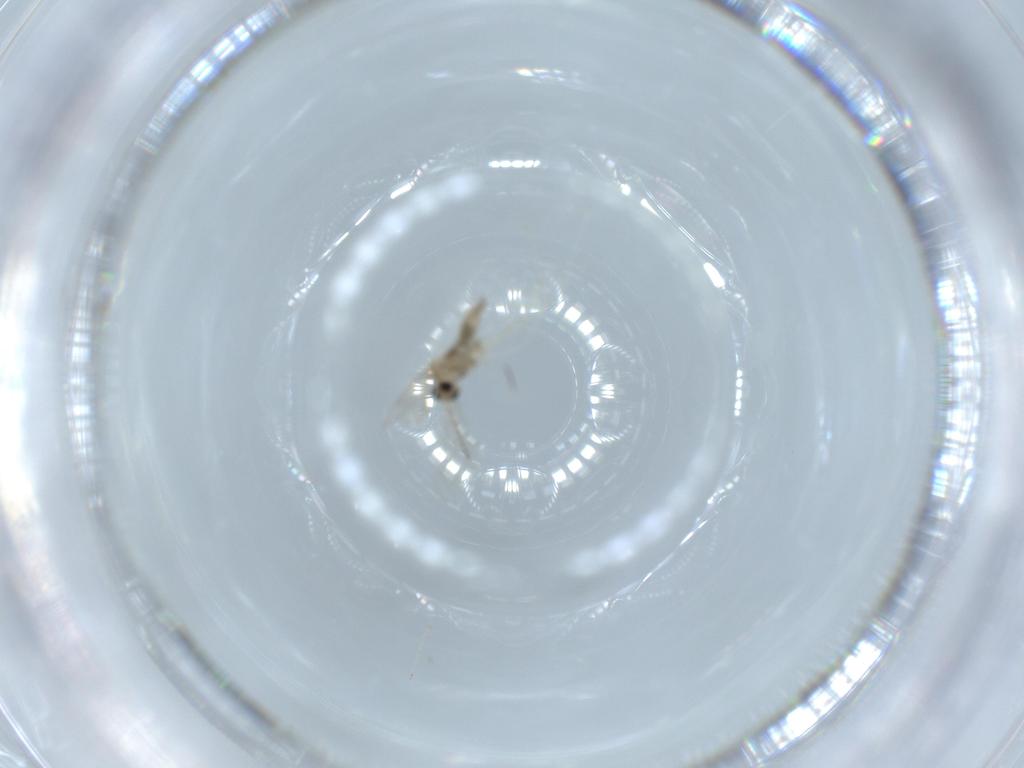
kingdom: Animalia
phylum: Arthropoda
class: Insecta
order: Diptera
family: Cecidomyiidae
